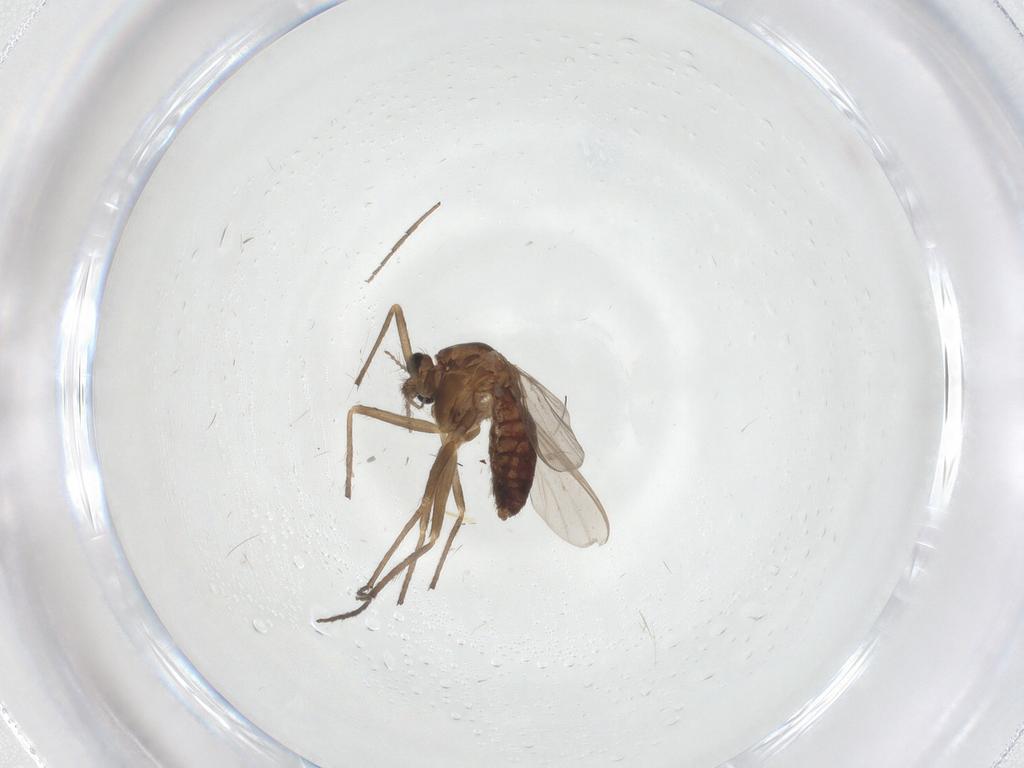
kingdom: Animalia
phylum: Arthropoda
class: Insecta
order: Diptera
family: Chironomidae
